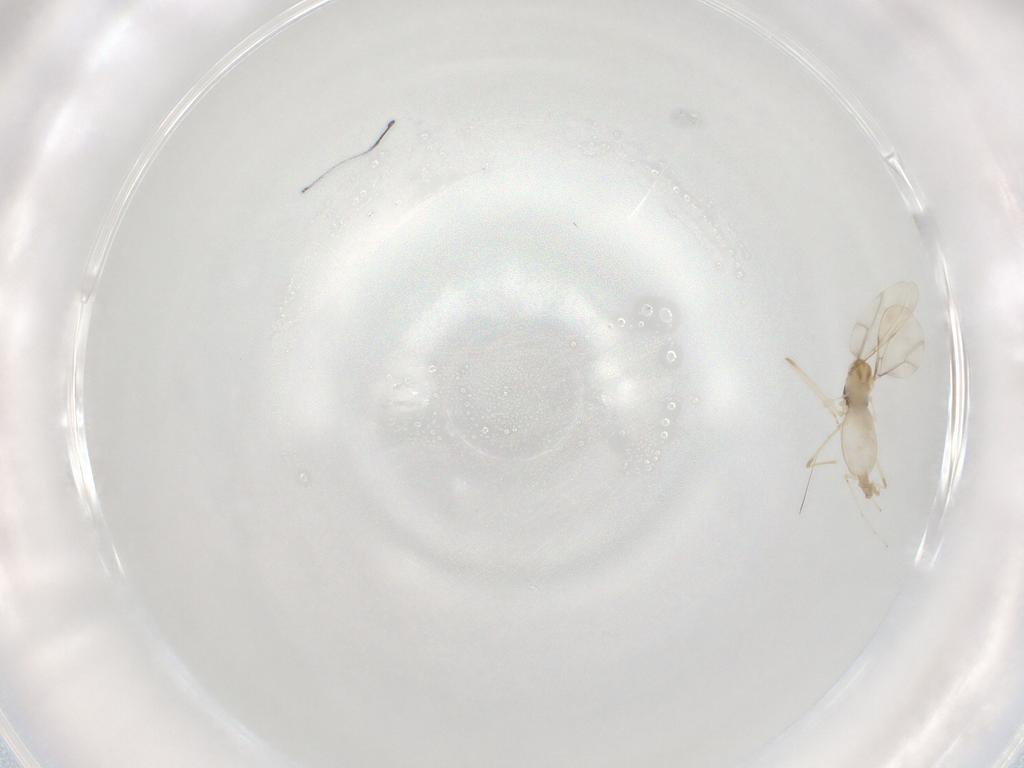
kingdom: Animalia
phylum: Arthropoda
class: Insecta
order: Diptera
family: Cecidomyiidae
